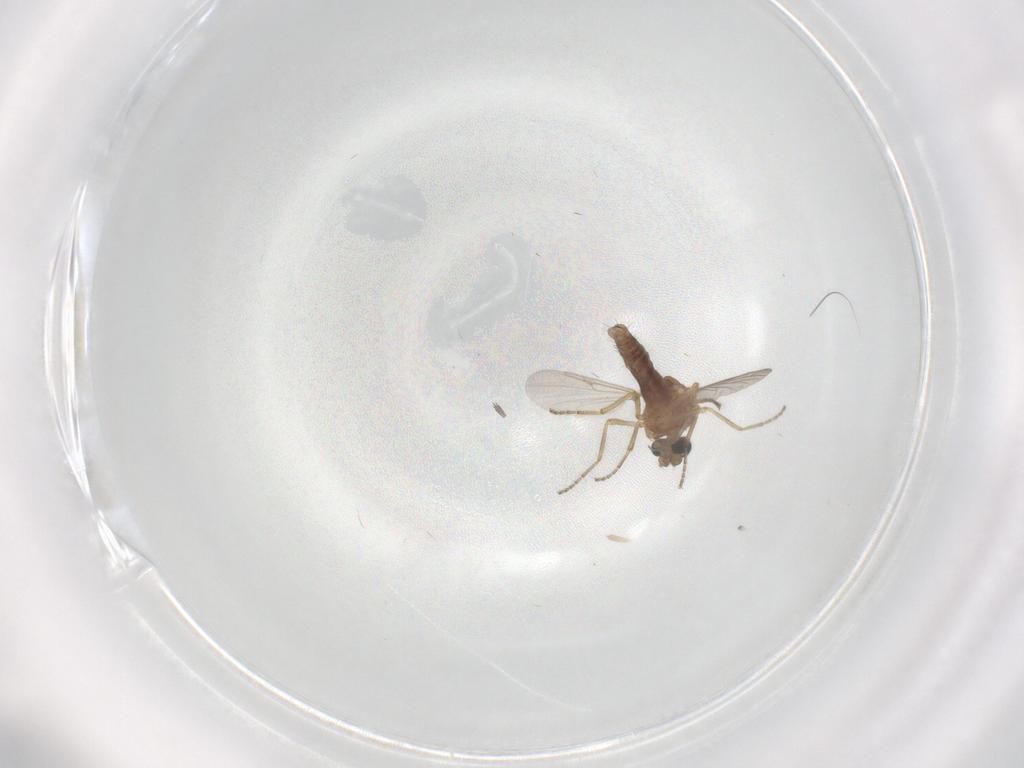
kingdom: Animalia
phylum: Arthropoda
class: Insecta
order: Diptera
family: Ceratopogonidae
